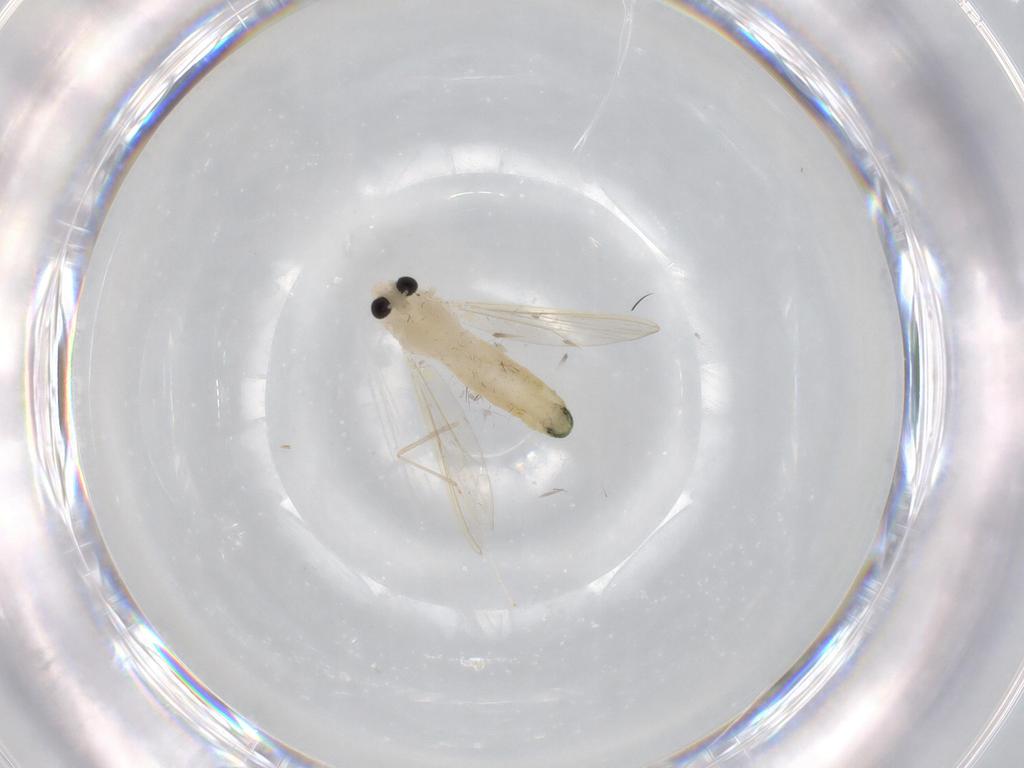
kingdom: Animalia
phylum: Arthropoda
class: Insecta
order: Diptera
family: Chironomidae
